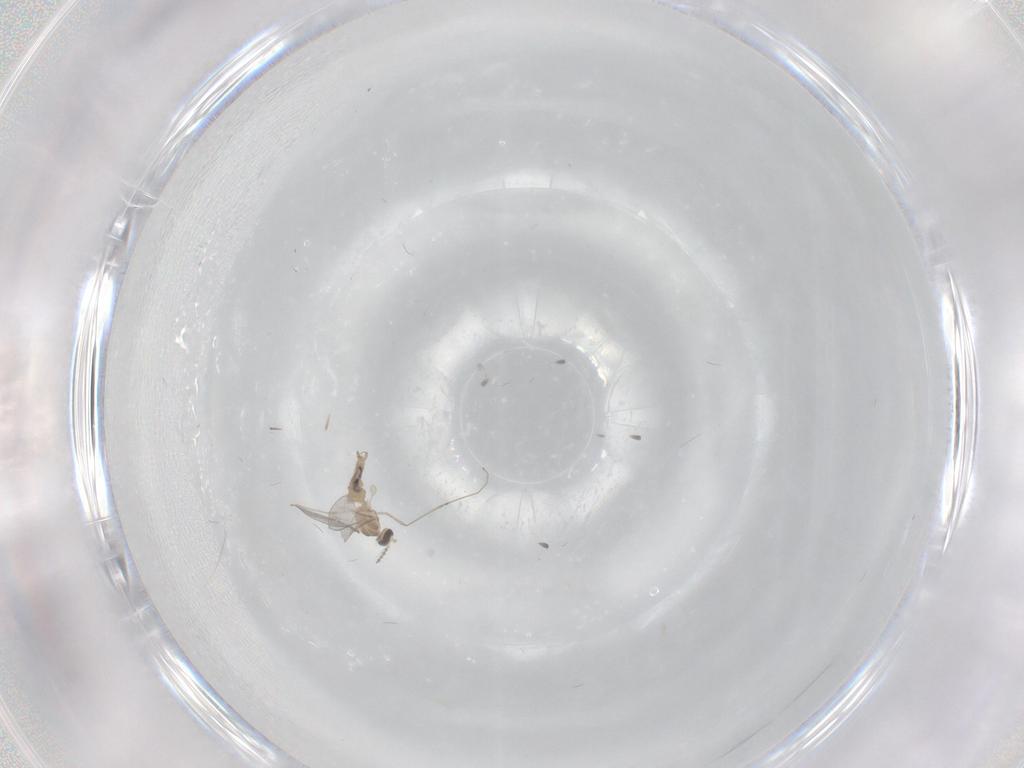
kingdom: Animalia
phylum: Arthropoda
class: Insecta
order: Diptera
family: Cecidomyiidae
